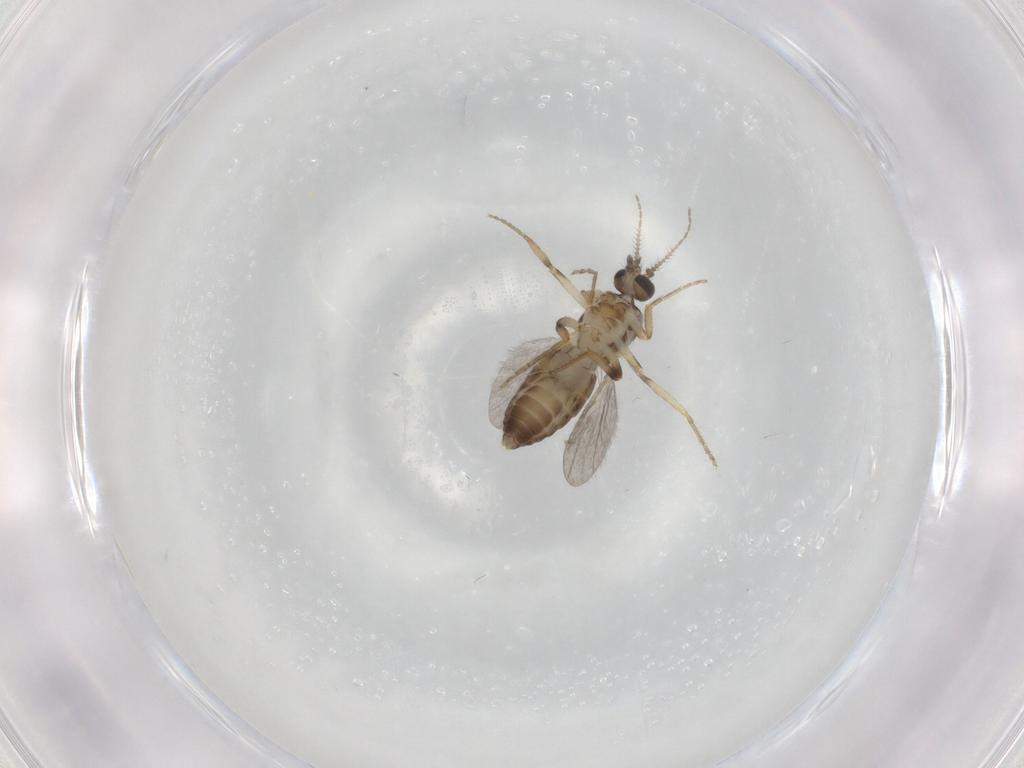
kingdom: Animalia
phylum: Arthropoda
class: Insecta
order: Diptera
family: Ceratopogonidae
